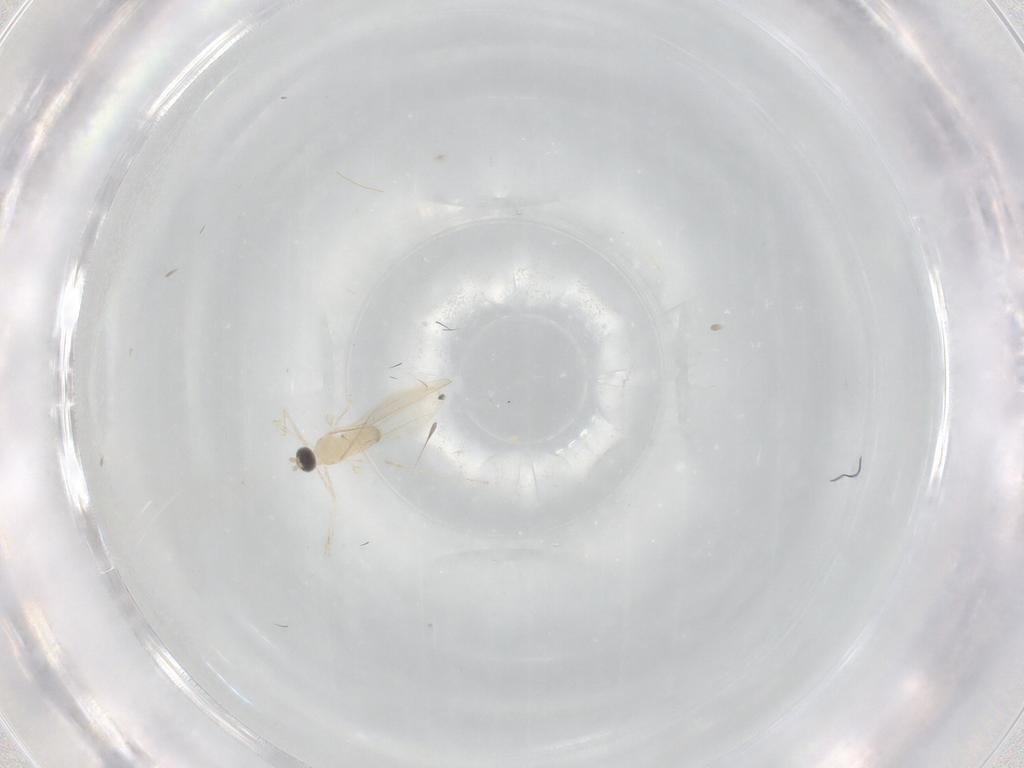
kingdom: Animalia
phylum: Arthropoda
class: Insecta
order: Diptera
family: Cecidomyiidae
